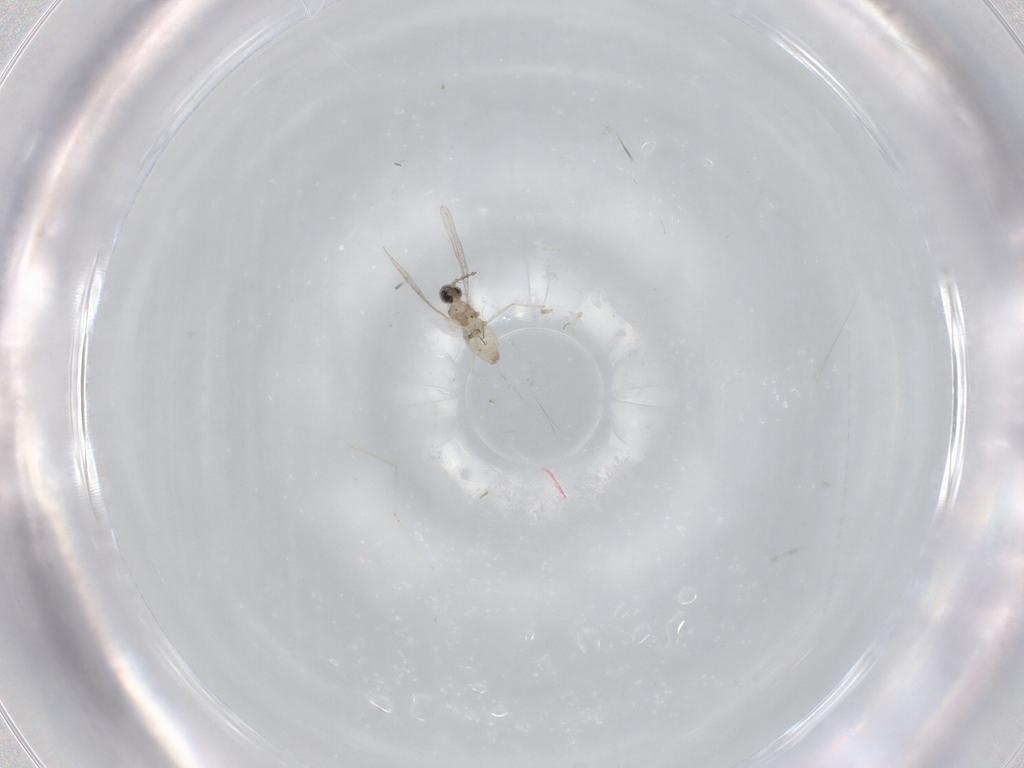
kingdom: Animalia
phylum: Arthropoda
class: Insecta
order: Diptera
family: Cecidomyiidae
